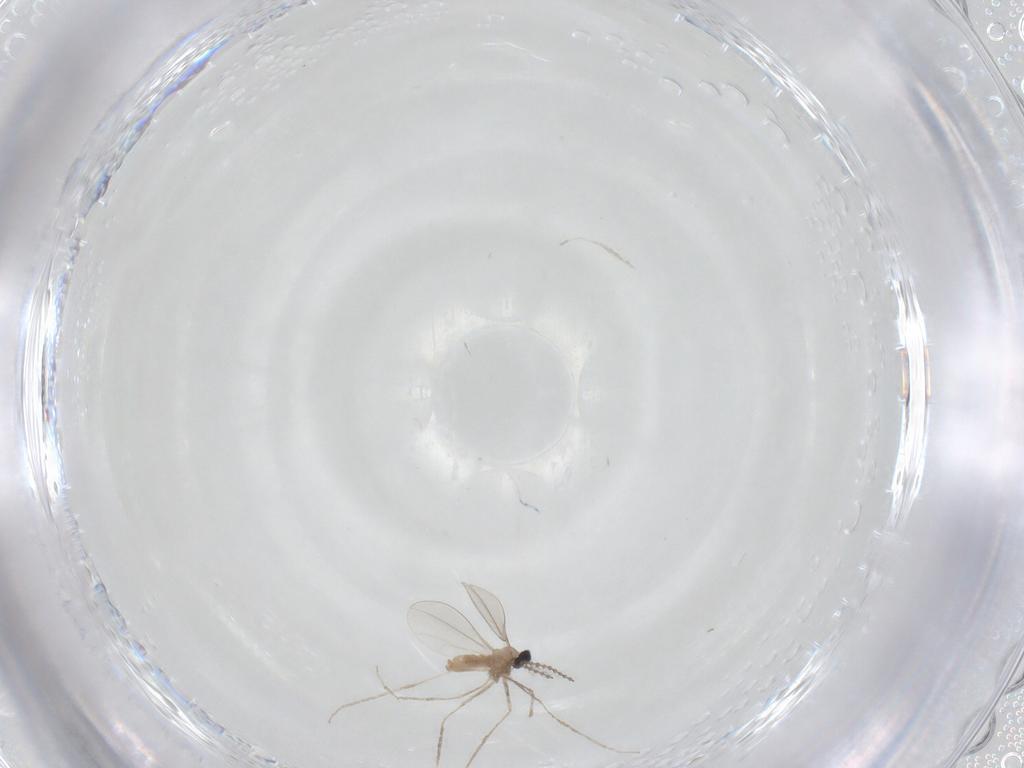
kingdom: Animalia
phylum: Arthropoda
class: Insecta
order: Diptera
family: Cecidomyiidae
